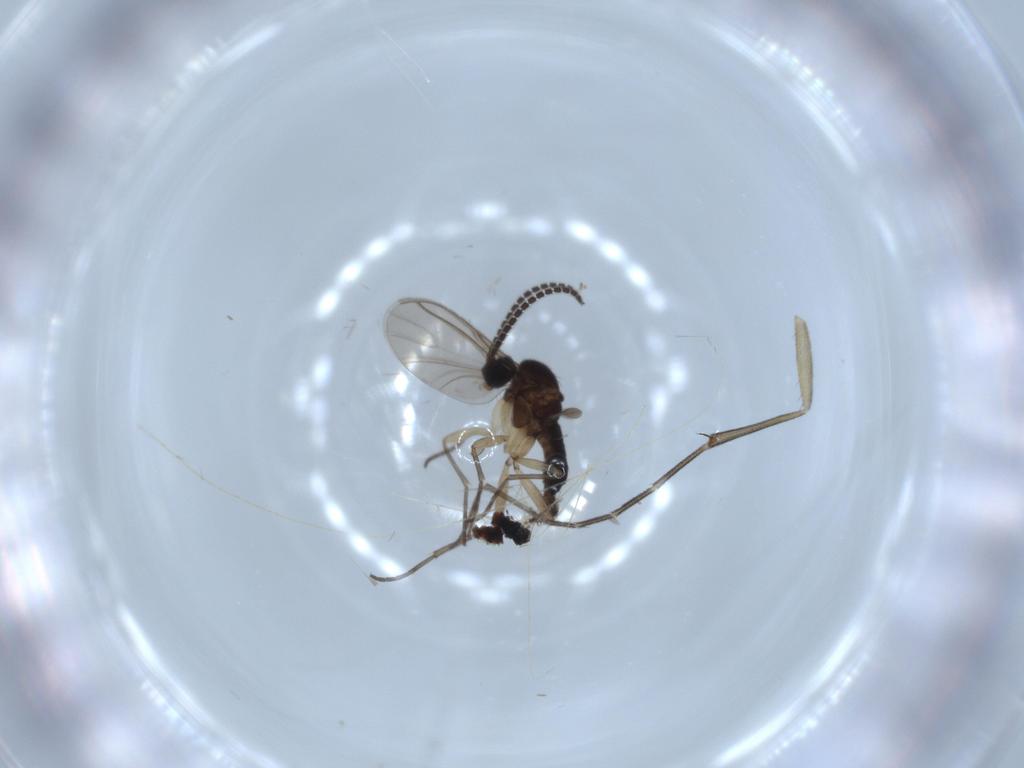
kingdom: Animalia
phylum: Arthropoda
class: Insecta
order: Diptera
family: Sciaridae
